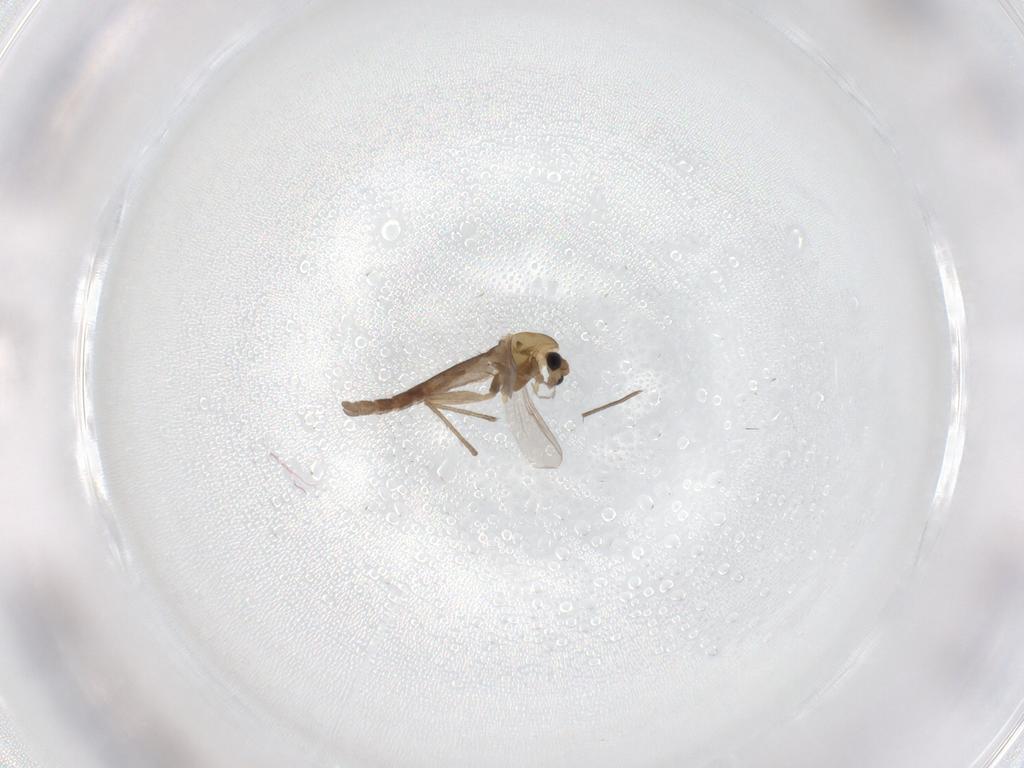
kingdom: Animalia
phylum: Arthropoda
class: Insecta
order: Diptera
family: Chironomidae
